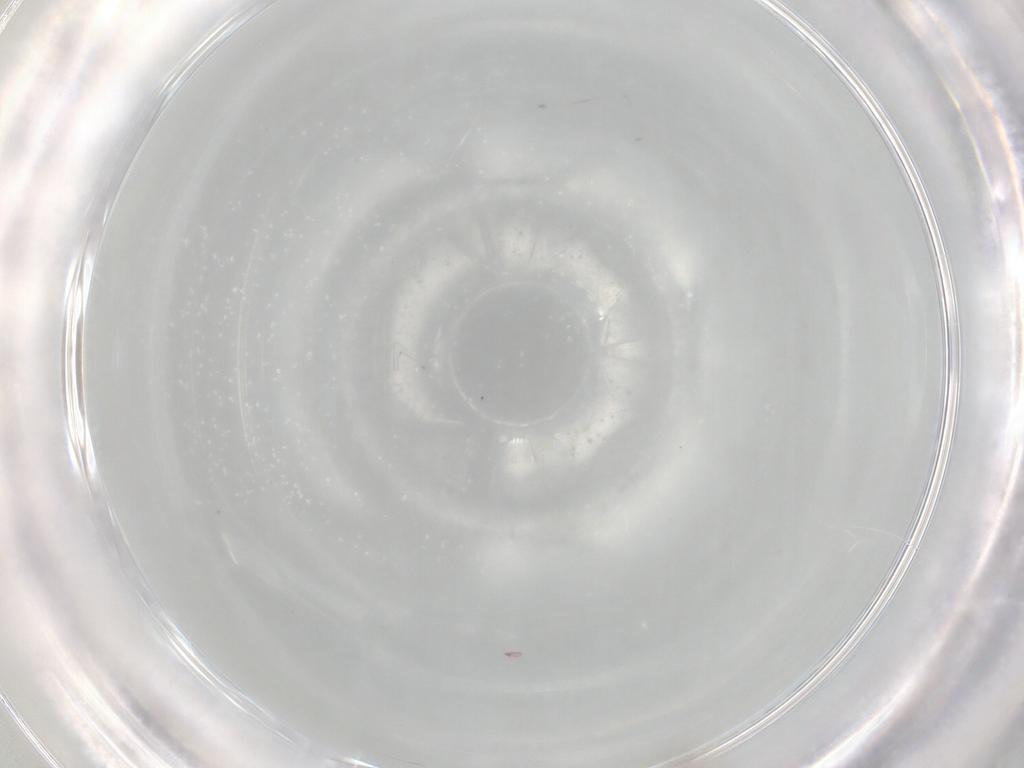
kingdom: Animalia
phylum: Arthropoda
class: Insecta
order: Diptera
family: Cecidomyiidae
